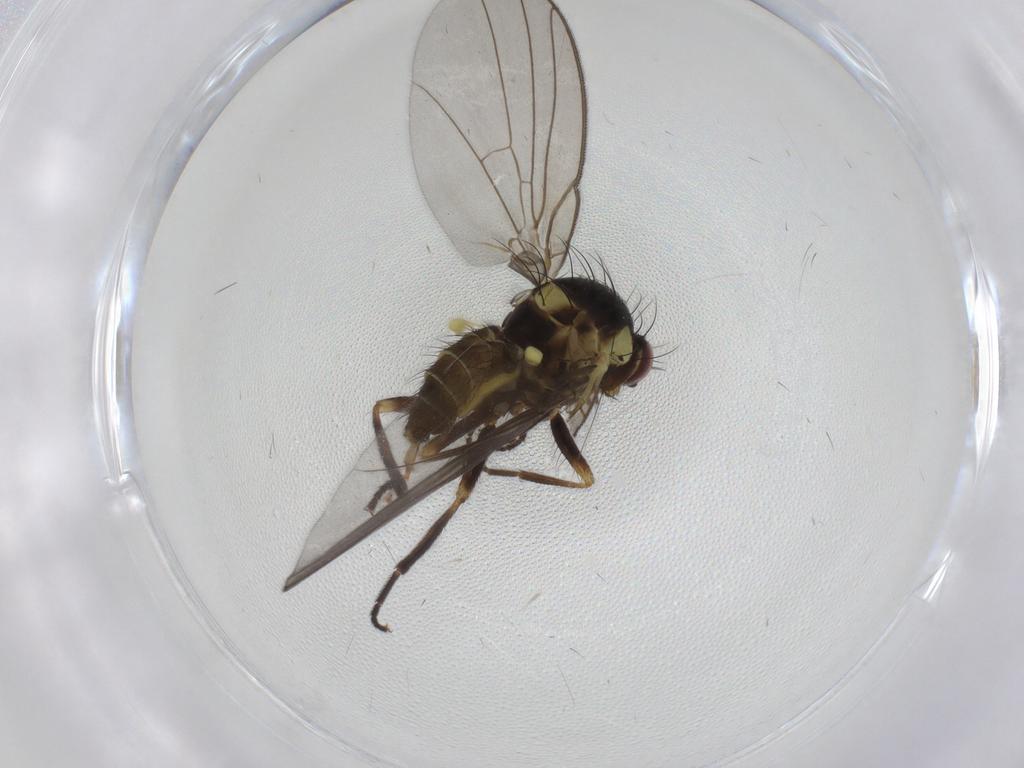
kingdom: Animalia
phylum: Arthropoda
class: Insecta
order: Diptera
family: Agromyzidae
